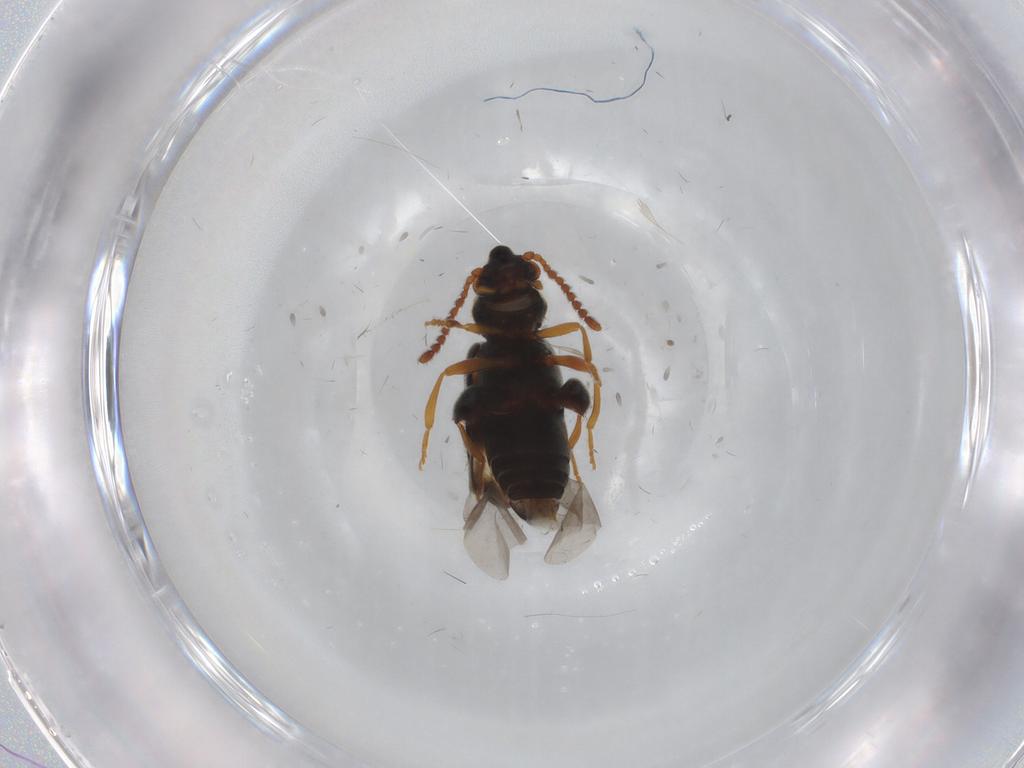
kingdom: Animalia
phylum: Arthropoda
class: Insecta
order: Coleoptera
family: Aderidae
